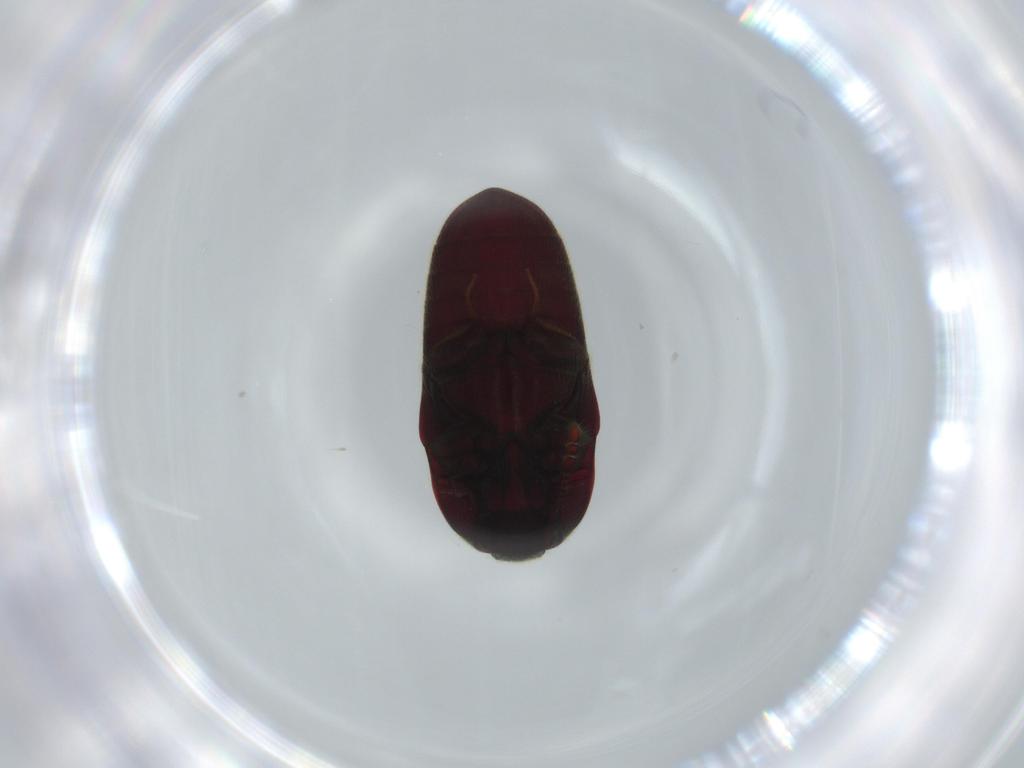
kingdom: Animalia
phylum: Arthropoda
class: Insecta
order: Coleoptera
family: Throscidae
